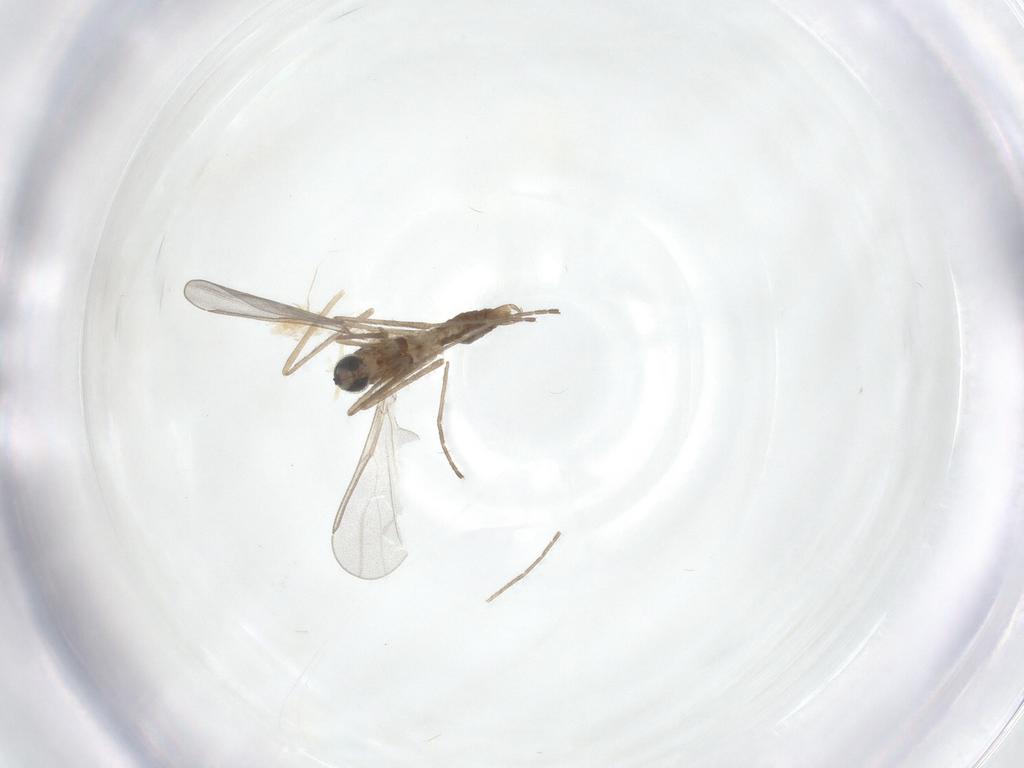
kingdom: Animalia
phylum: Arthropoda
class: Insecta
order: Diptera
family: Cecidomyiidae
